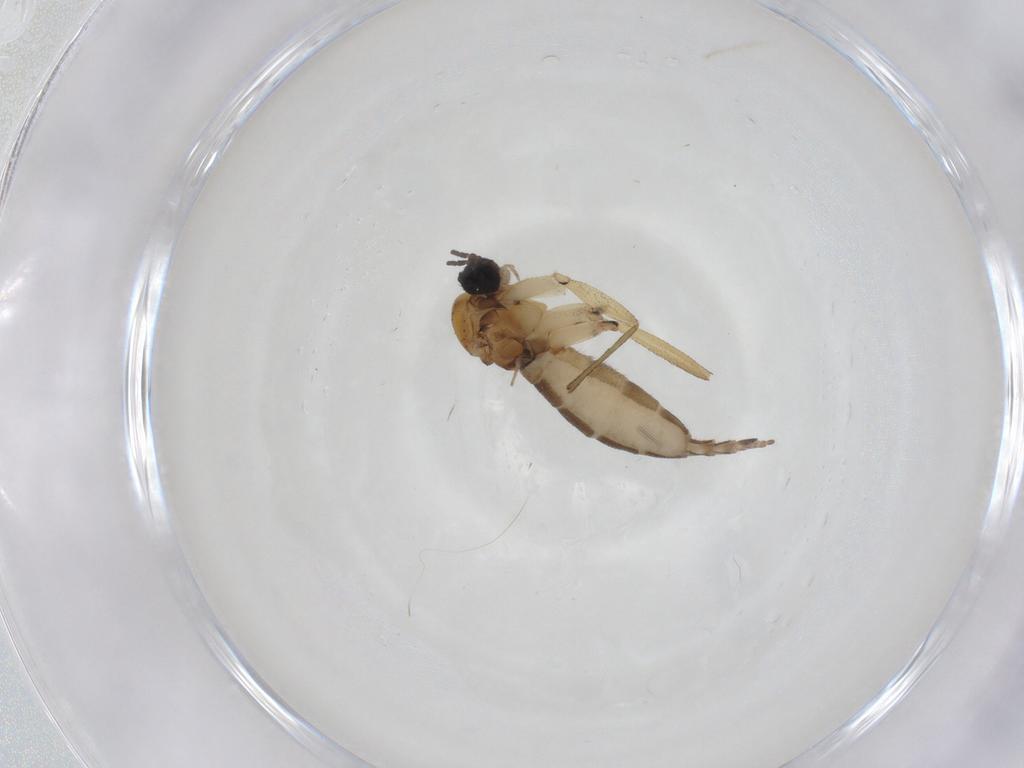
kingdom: Animalia
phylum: Arthropoda
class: Insecta
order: Diptera
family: Muscidae
